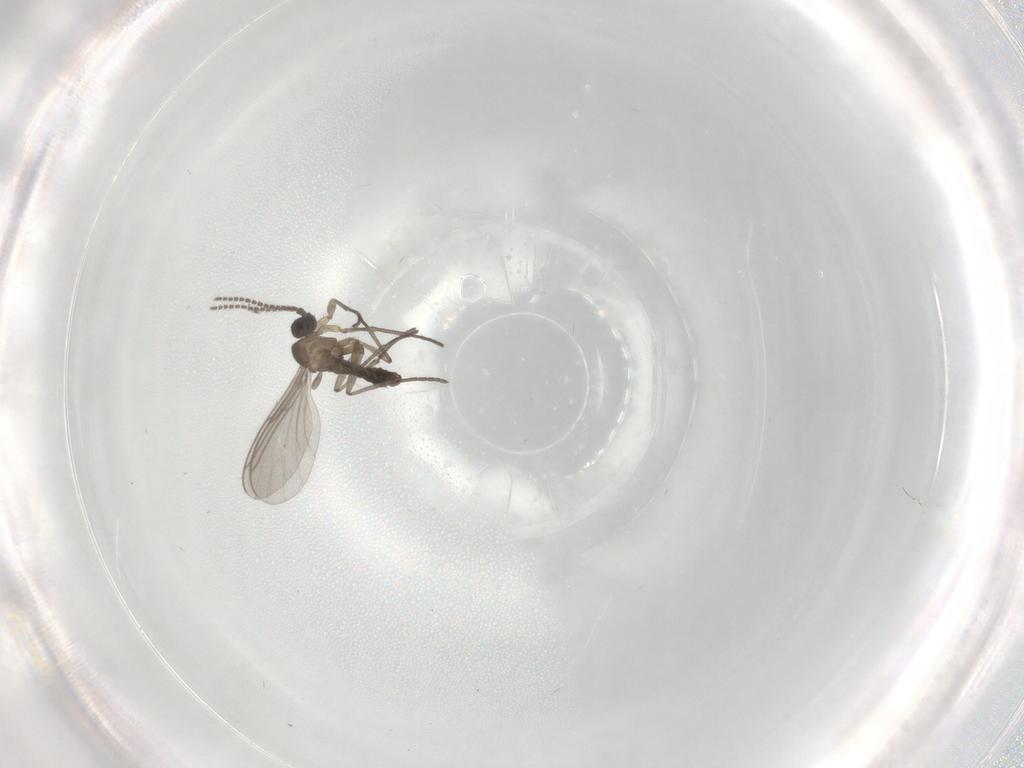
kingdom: Animalia
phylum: Arthropoda
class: Insecta
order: Diptera
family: Sciaridae
